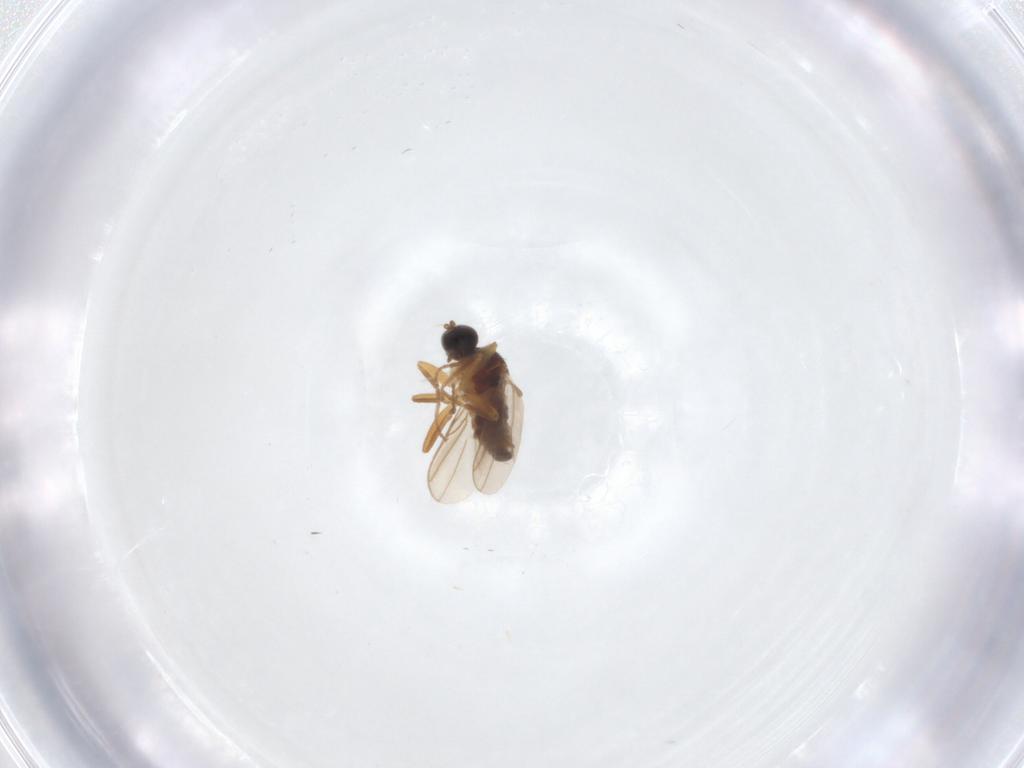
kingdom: Animalia
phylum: Arthropoda
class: Insecta
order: Diptera
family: Hybotidae
